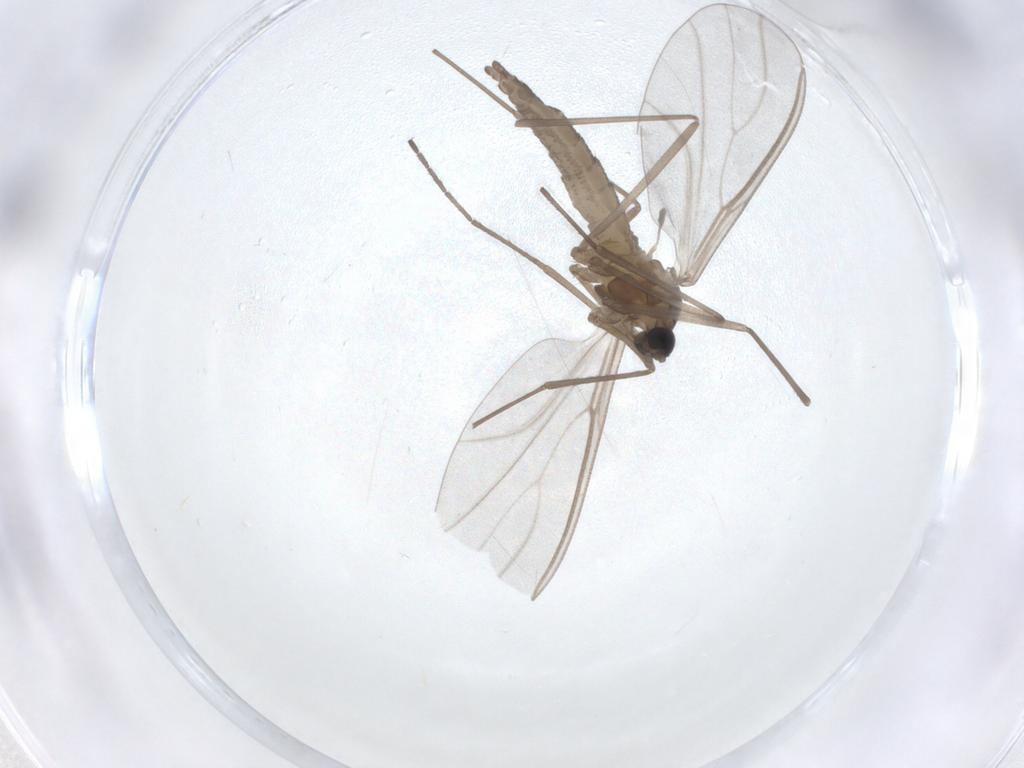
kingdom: Animalia
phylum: Arthropoda
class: Insecta
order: Diptera
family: Cecidomyiidae
